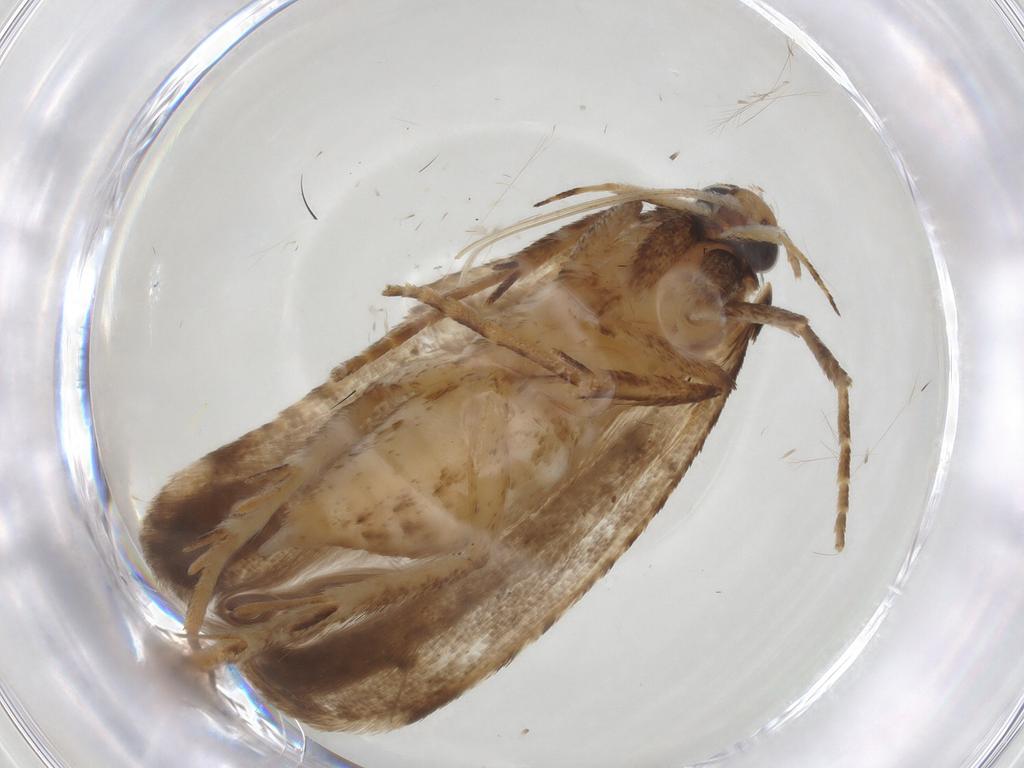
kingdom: Animalia
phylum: Arthropoda
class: Insecta
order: Lepidoptera
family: Gelechiidae
